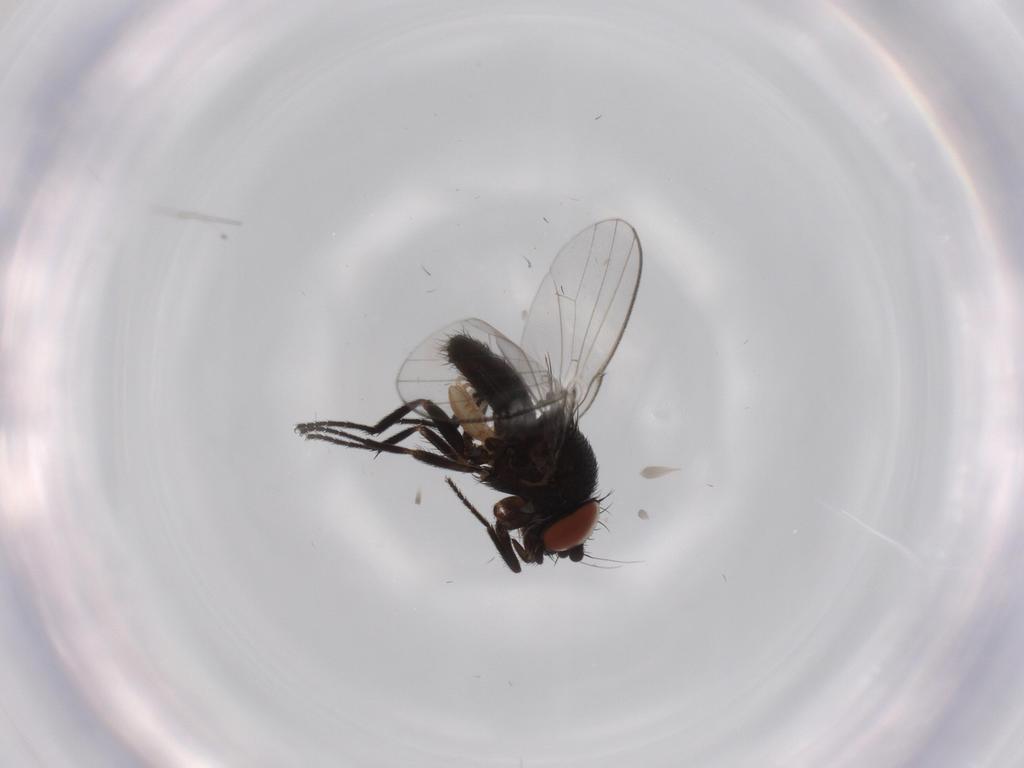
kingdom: Animalia
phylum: Arthropoda
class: Insecta
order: Diptera
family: Milichiidae
